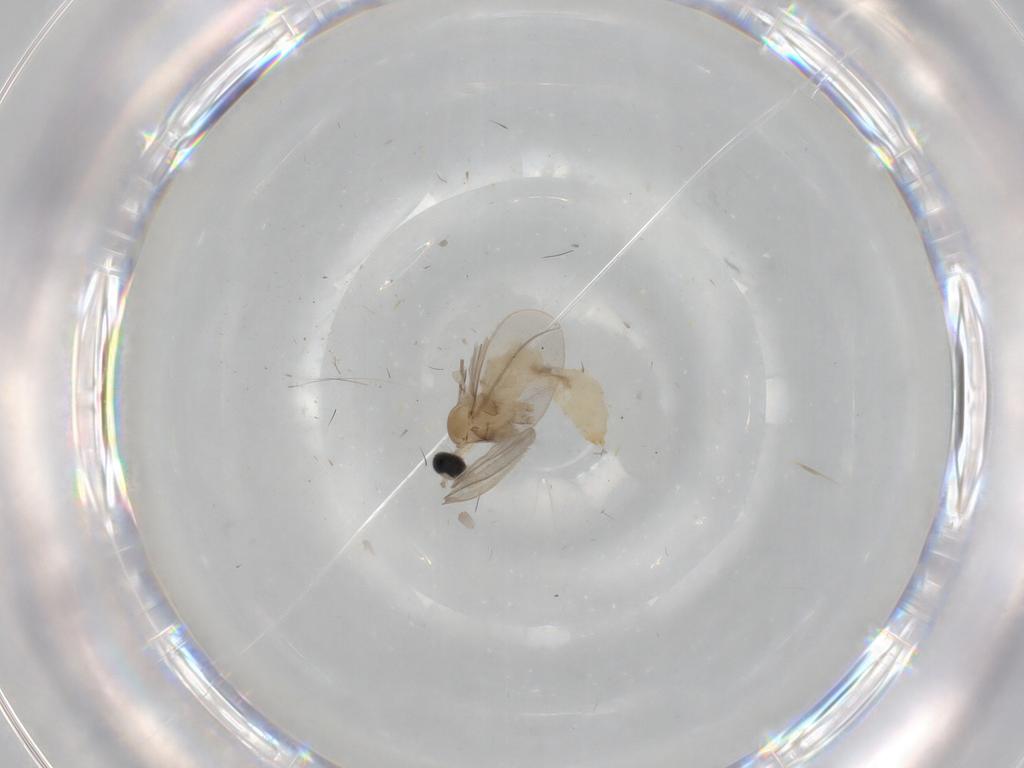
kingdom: Animalia
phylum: Arthropoda
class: Insecta
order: Diptera
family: Cecidomyiidae
